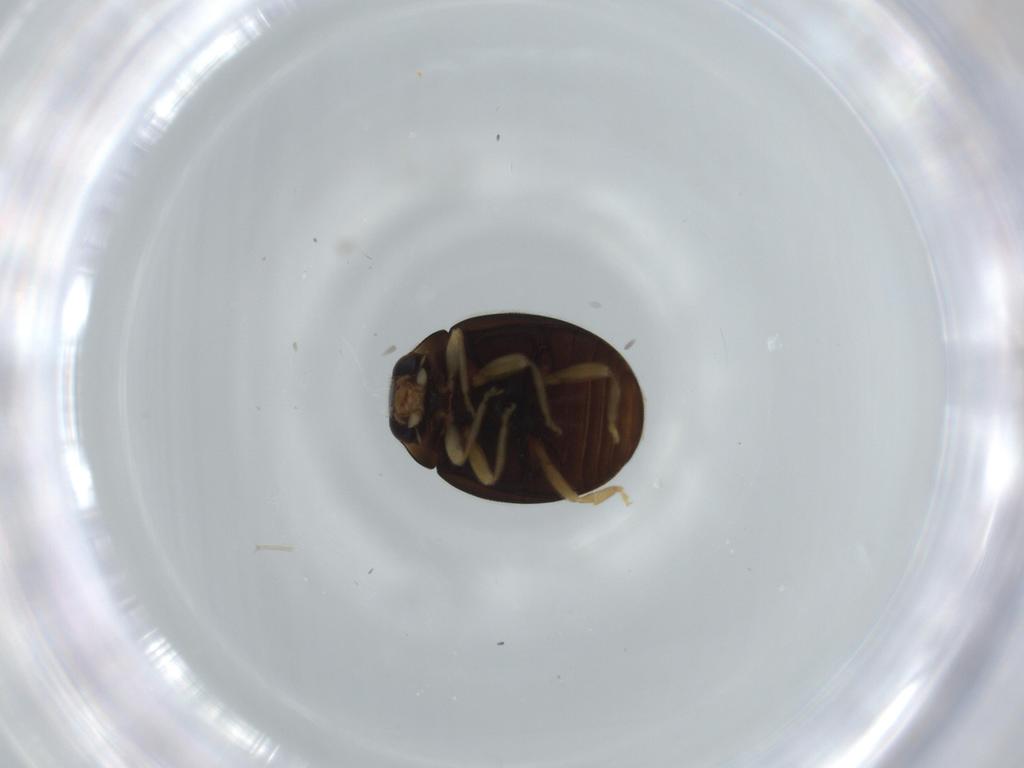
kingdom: Animalia
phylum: Arthropoda
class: Insecta
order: Coleoptera
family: Coccinellidae
